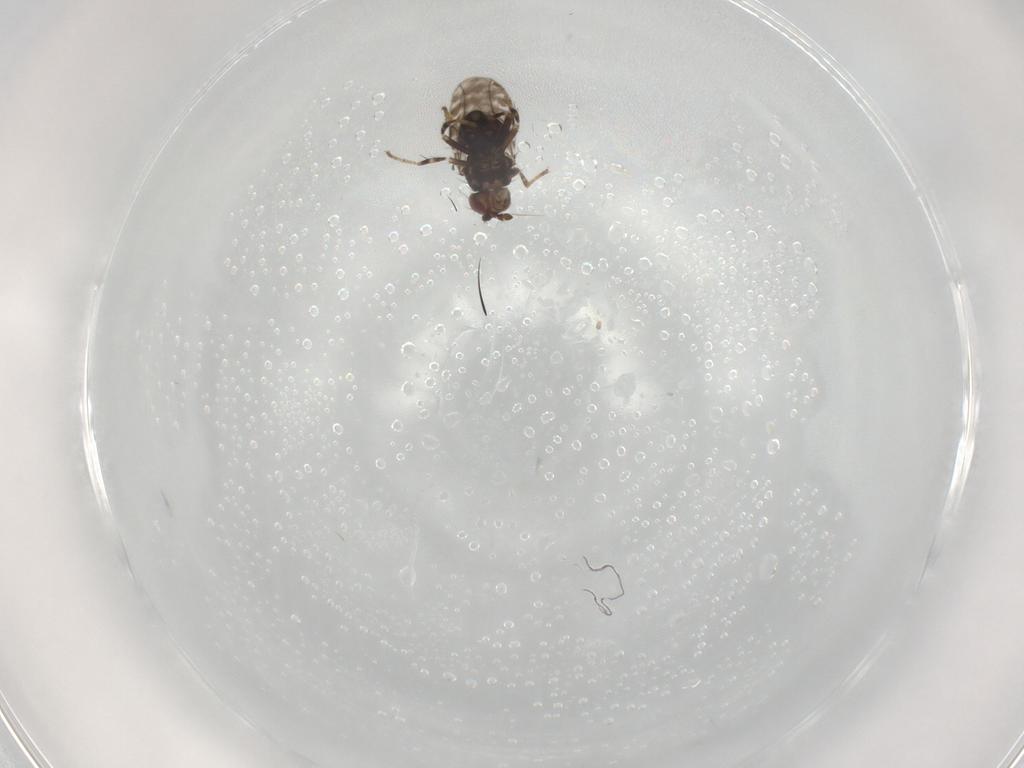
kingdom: Animalia
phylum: Arthropoda
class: Insecta
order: Diptera
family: Sphaeroceridae
